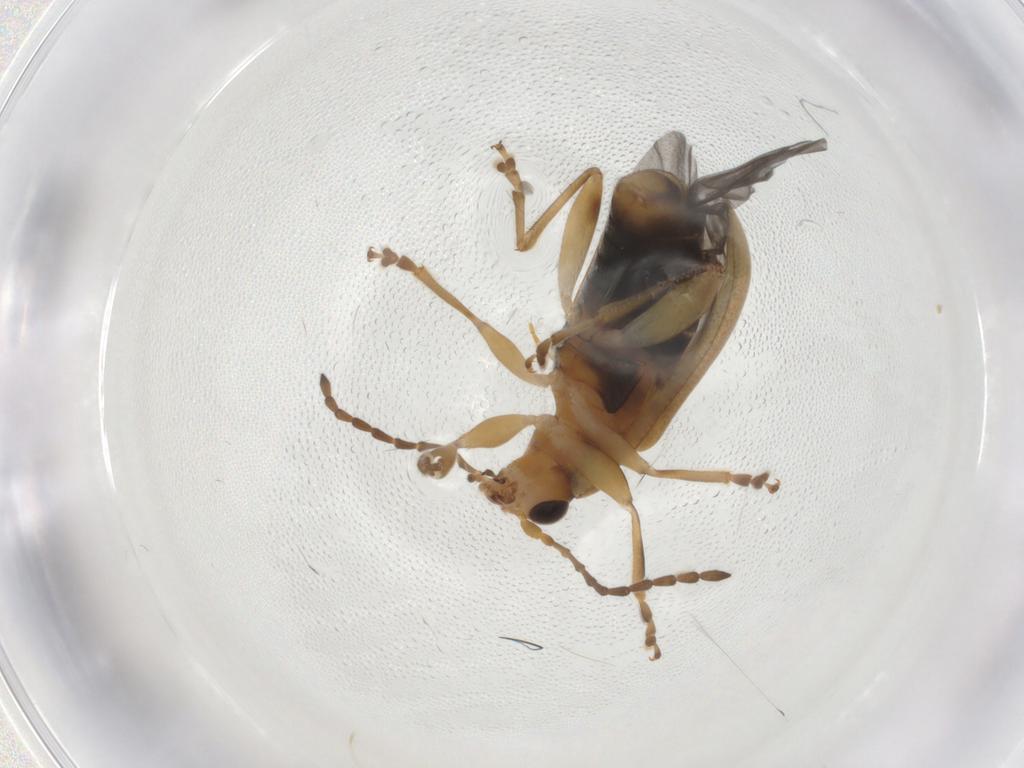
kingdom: Animalia
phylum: Arthropoda
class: Insecta
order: Coleoptera
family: Chrysomelidae
